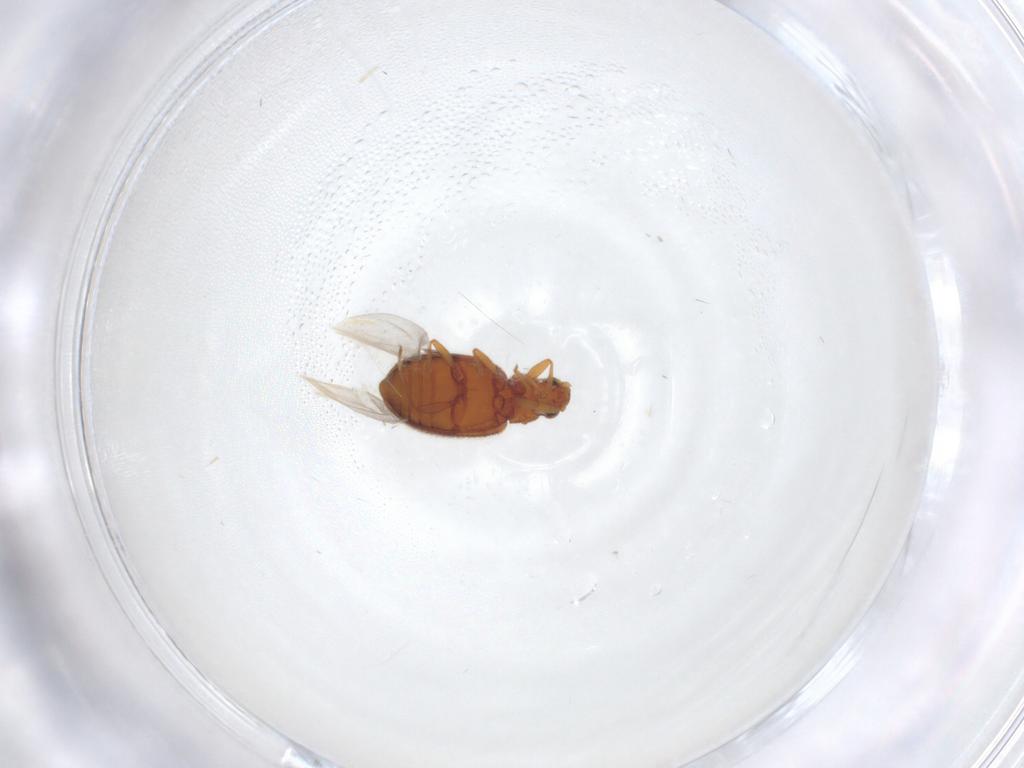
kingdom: Animalia
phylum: Arthropoda
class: Insecta
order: Coleoptera
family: Latridiidae
